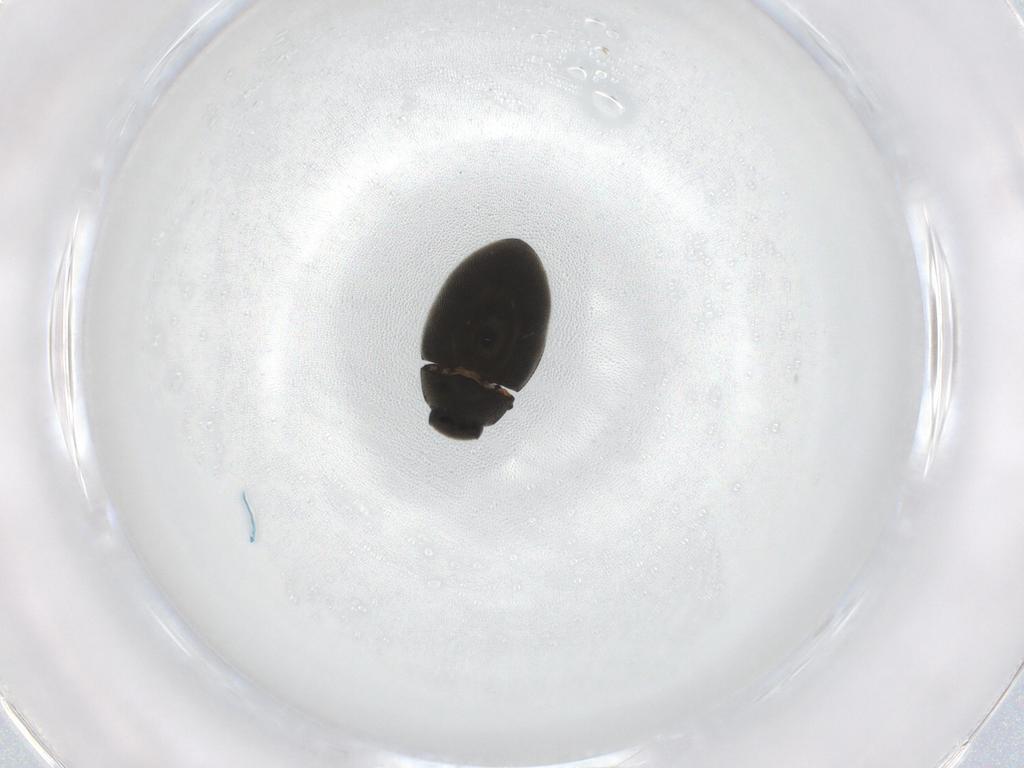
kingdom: Animalia
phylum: Arthropoda
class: Insecta
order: Coleoptera
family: Limnichidae
